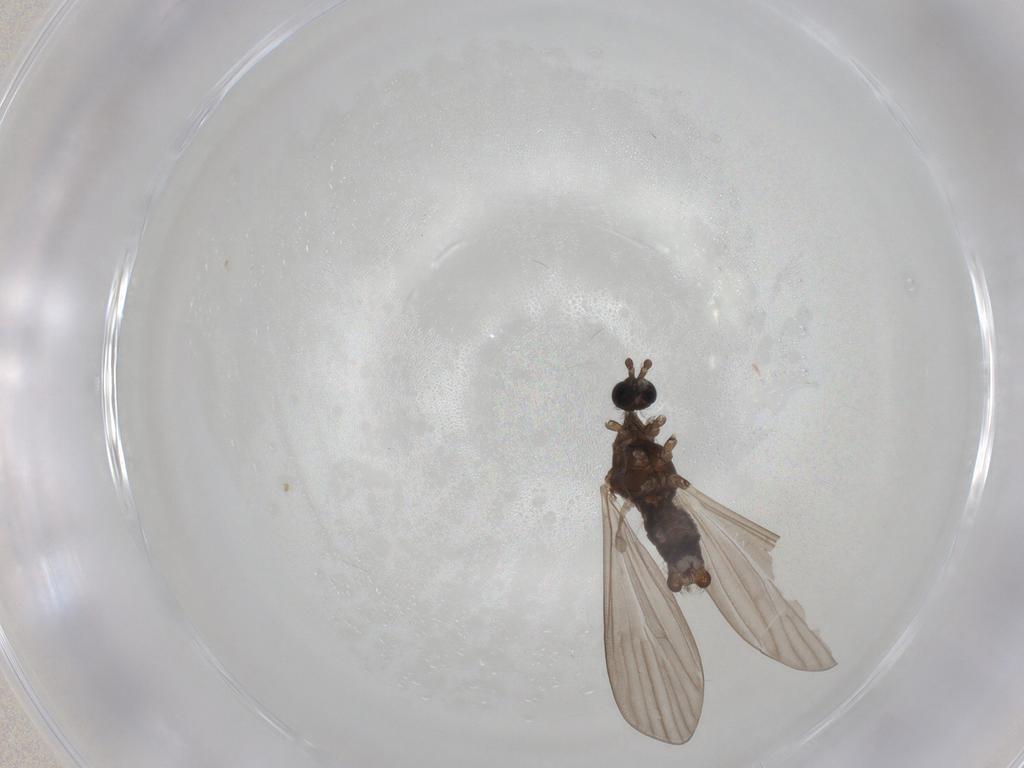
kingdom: Animalia
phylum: Arthropoda
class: Insecta
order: Diptera
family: Limoniidae
